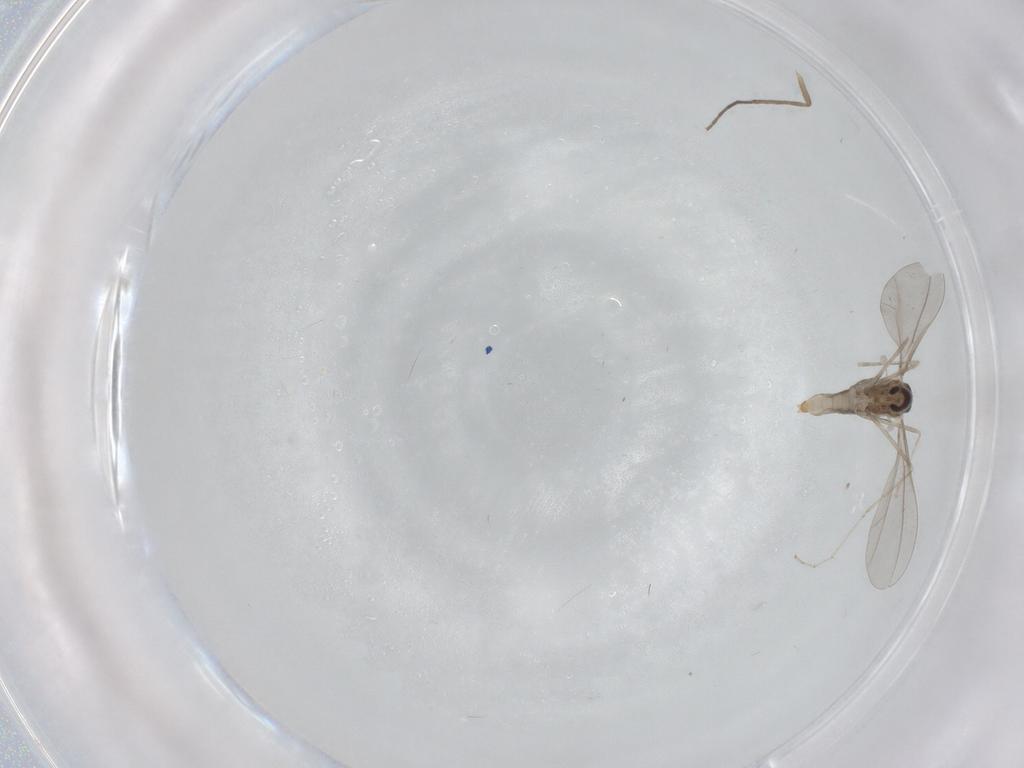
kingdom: Animalia
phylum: Arthropoda
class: Insecta
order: Diptera
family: Cecidomyiidae
